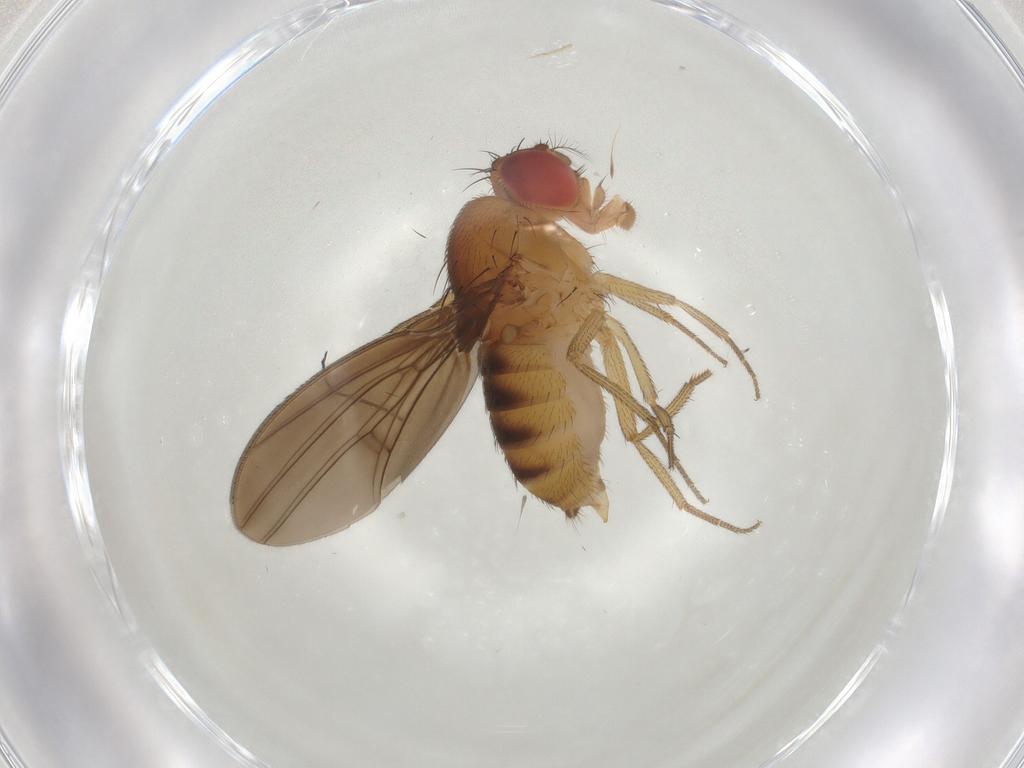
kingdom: Animalia
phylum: Arthropoda
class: Insecta
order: Diptera
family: Drosophilidae
